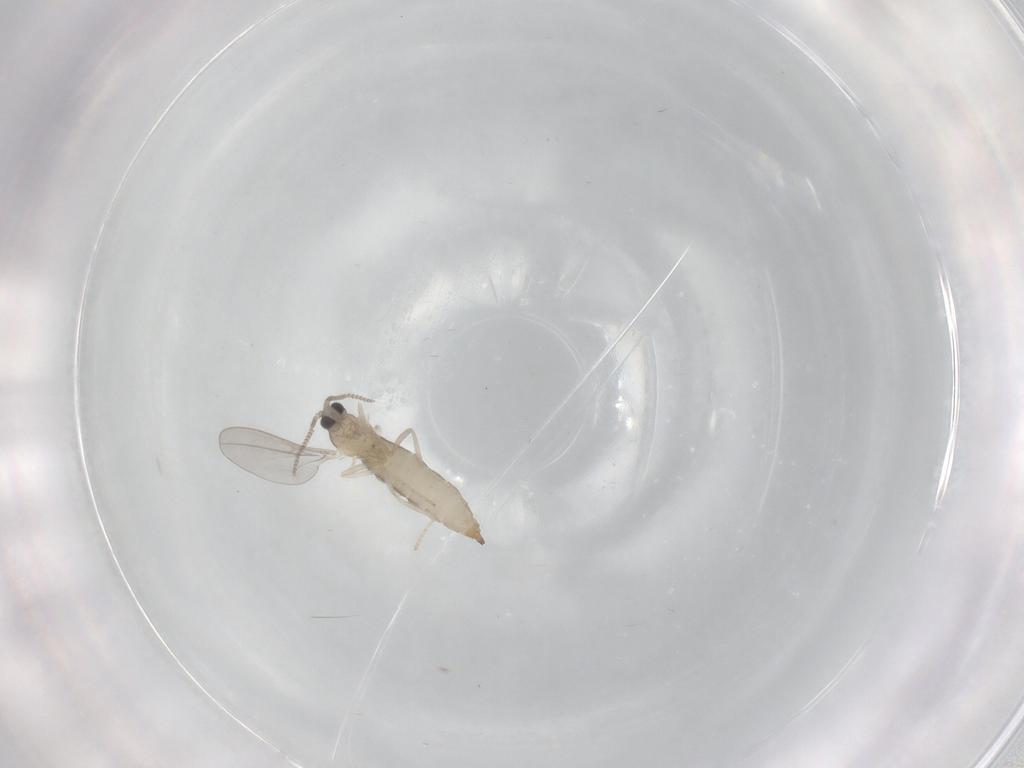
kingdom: Animalia
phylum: Arthropoda
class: Insecta
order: Diptera
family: Cecidomyiidae
